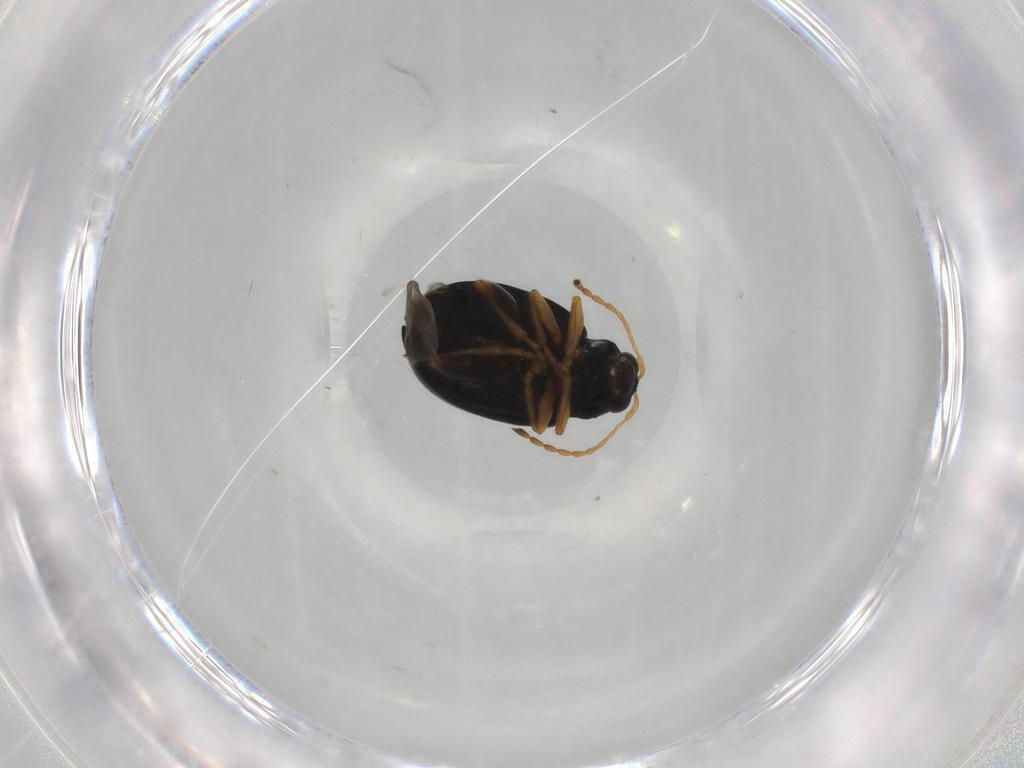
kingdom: Animalia
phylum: Arthropoda
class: Insecta
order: Coleoptera
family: Chrysomelidae
